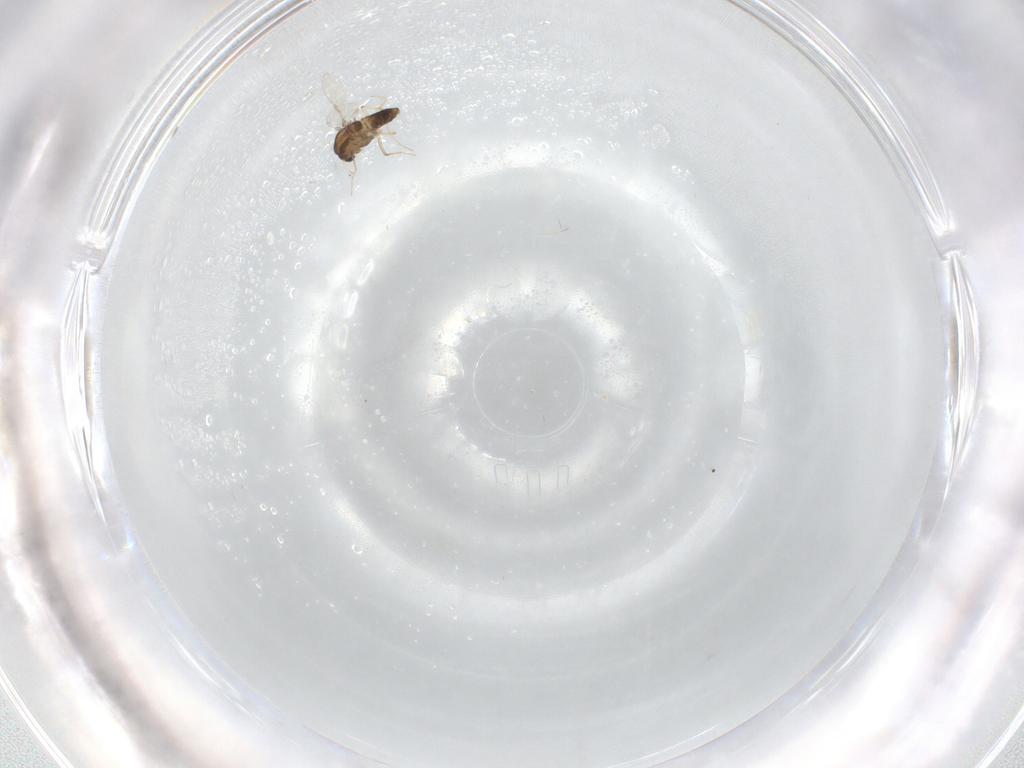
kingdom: Animalia
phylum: Arthropoda
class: Insecta
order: Diptera
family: Chironomidae
